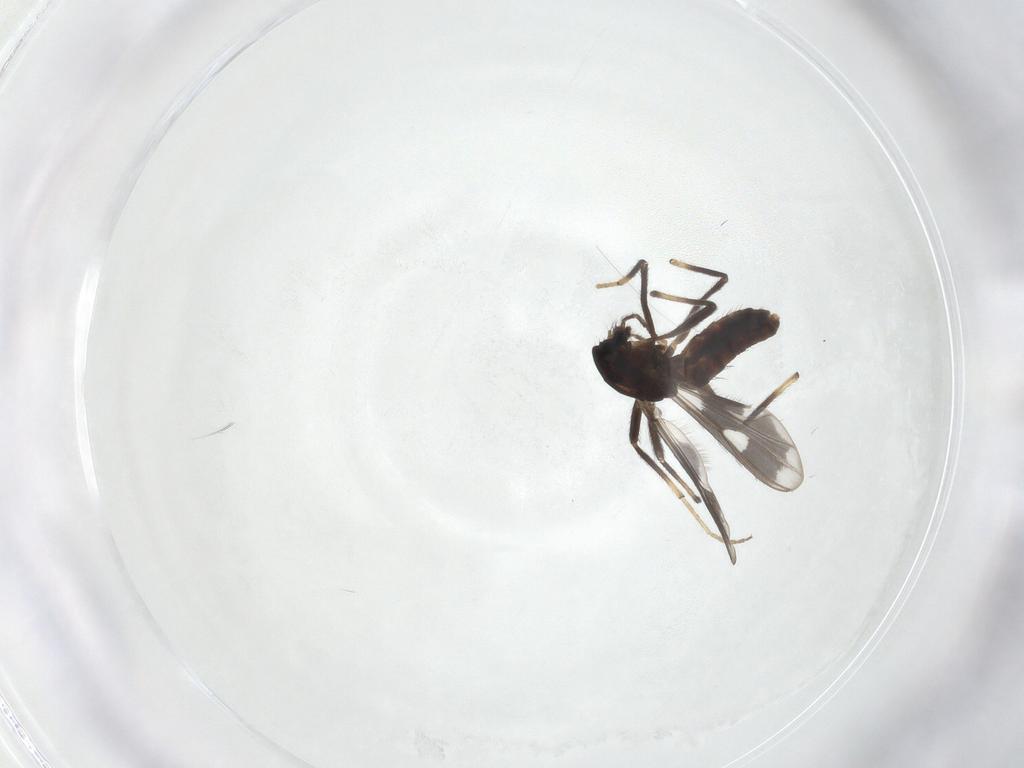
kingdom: Animalia
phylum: Arthropoda
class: Insecta
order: Diptera
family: Chironomidae
